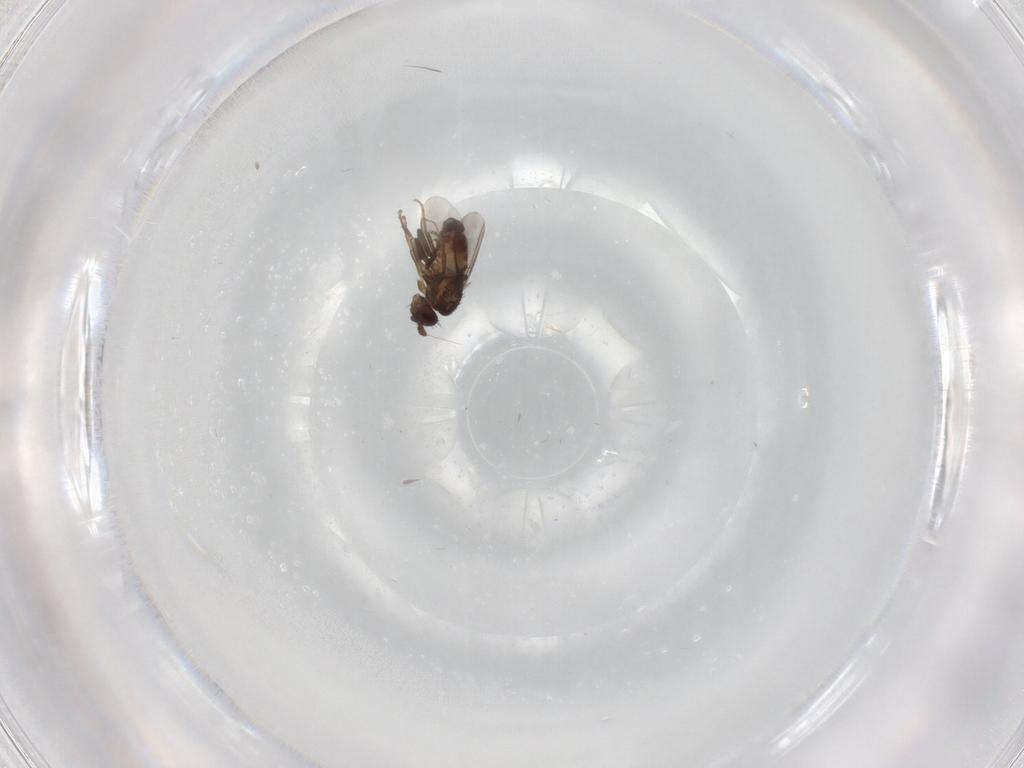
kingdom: Animalia
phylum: Arthropoda
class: Insecta
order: Diptera
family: Sphaeroceridae
